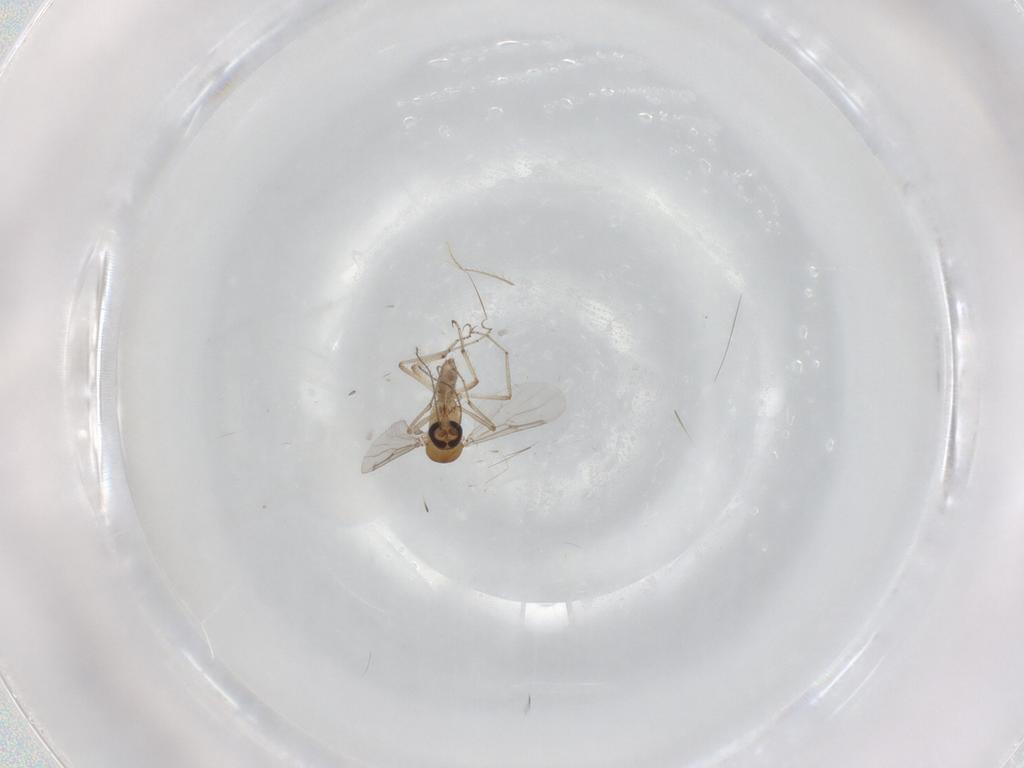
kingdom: Animalia
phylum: Arthropoda
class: Insecta
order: Diptera
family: Ceratopogonidae
